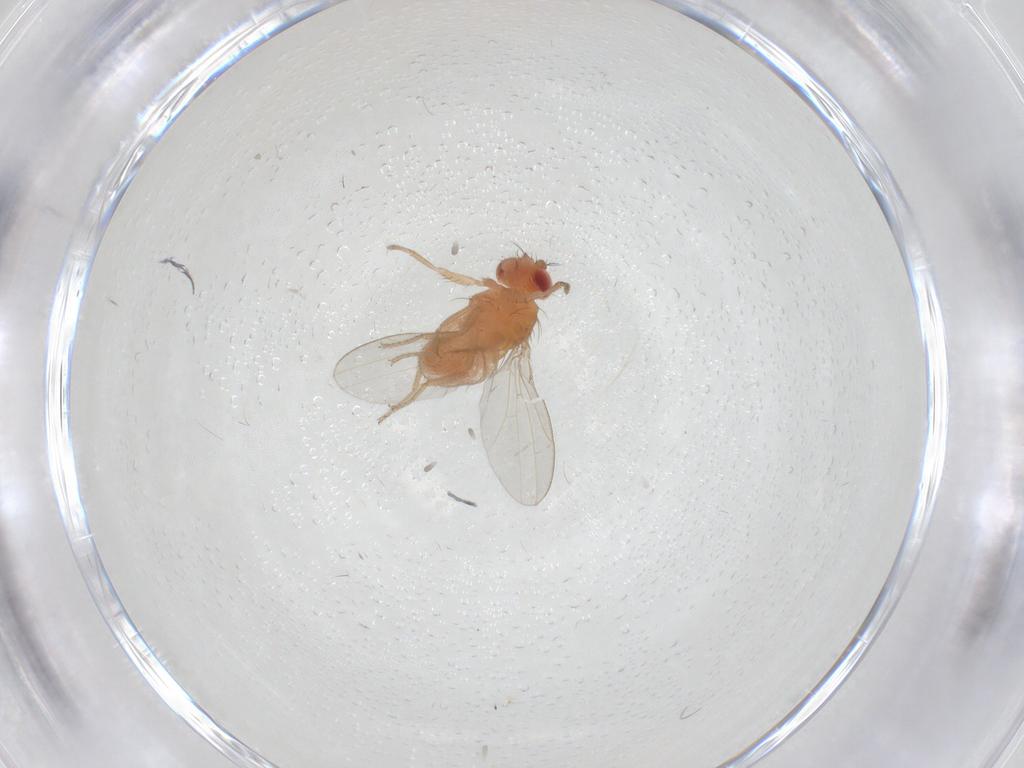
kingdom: Animalia
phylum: Arthropoda
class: Insecta
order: Diptera
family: Drosophilidae
